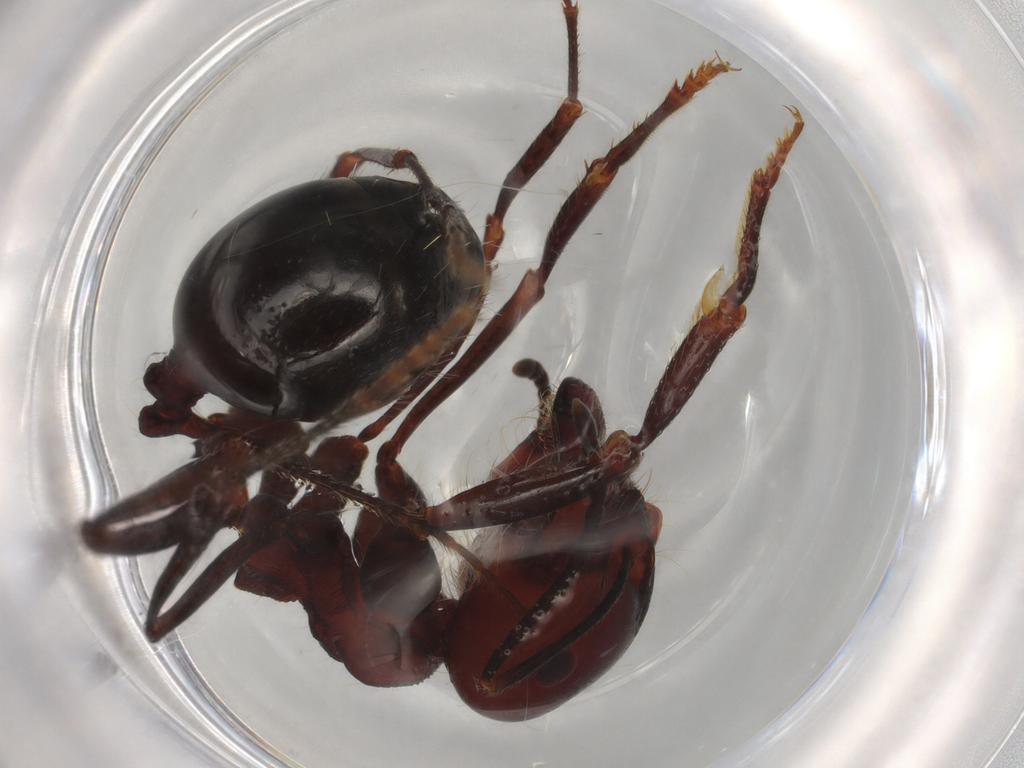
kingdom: Animalia
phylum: Arthropoda
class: Insecta
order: Hymenoptera
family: Formicidae
